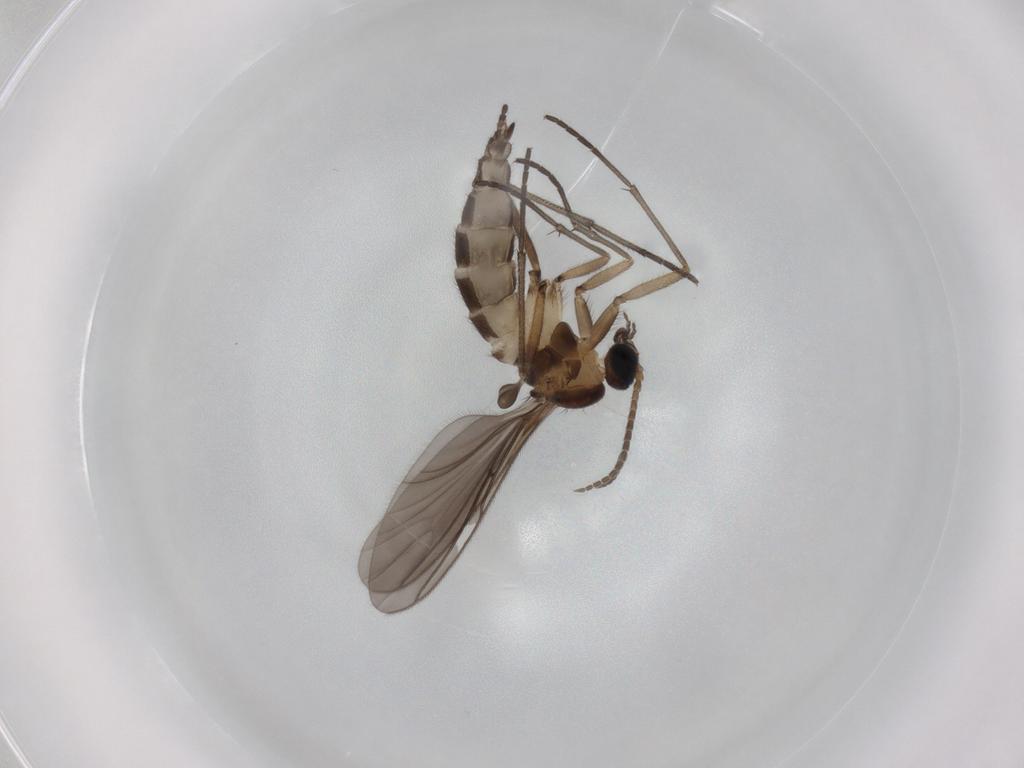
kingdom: Animalia
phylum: Arthropoda
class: Insecta
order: Diptera
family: Sciaridae
